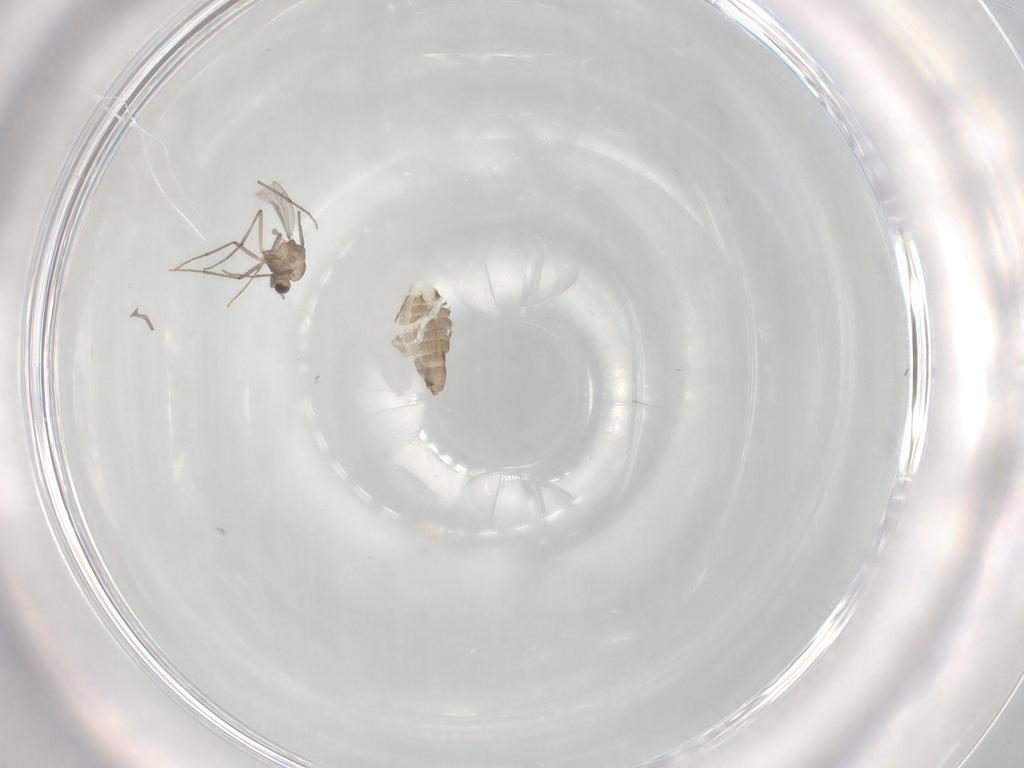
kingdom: Animalia
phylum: Arthropoda
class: Insecta
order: Diptera
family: Chironomidae
